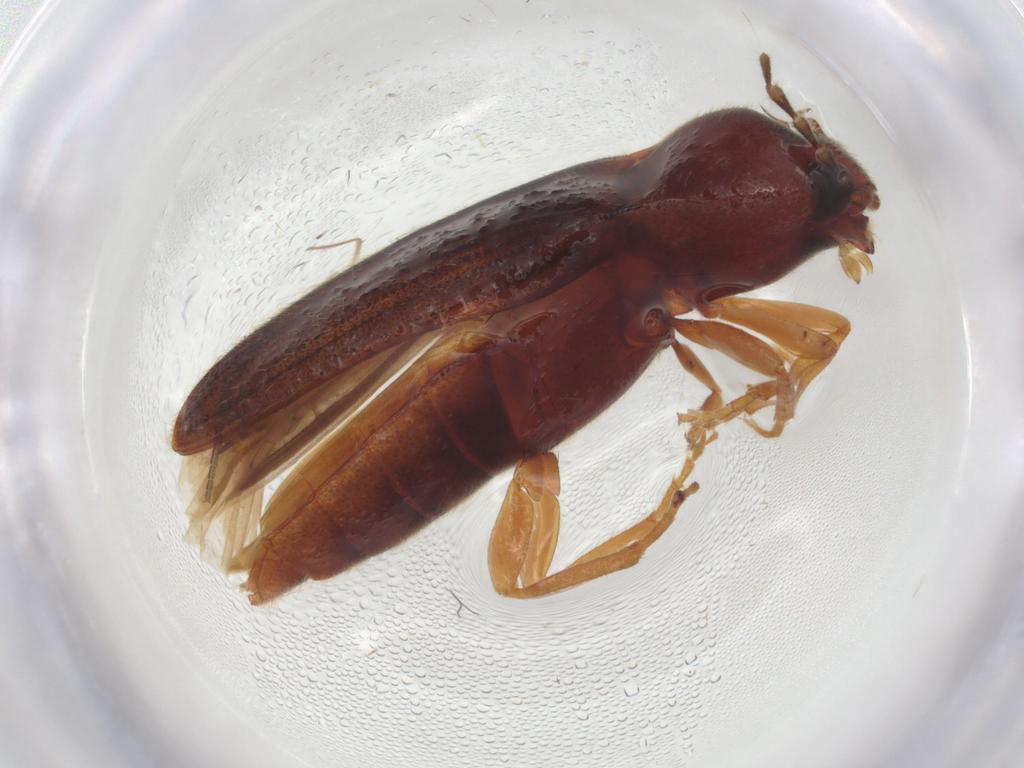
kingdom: Animalia
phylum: Arthropoda
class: Insecta
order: Coleoptera
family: Elateridae
